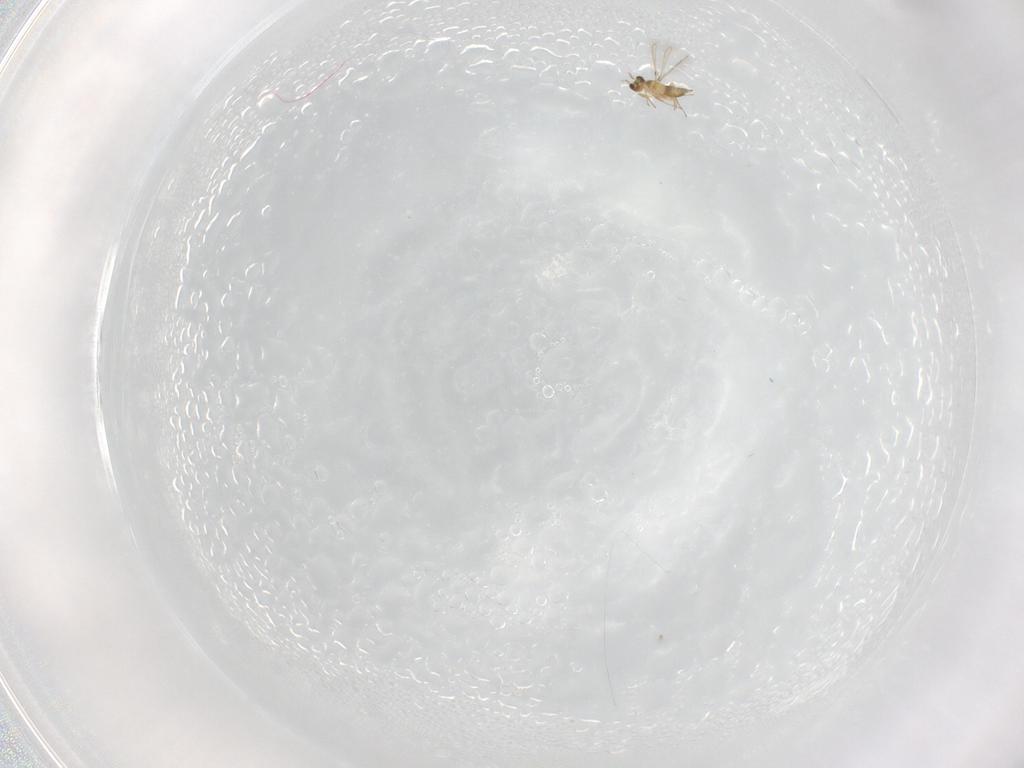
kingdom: Animalia
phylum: Arthropoda
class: Insecta
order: Hymenoptera
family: Mymaridae
